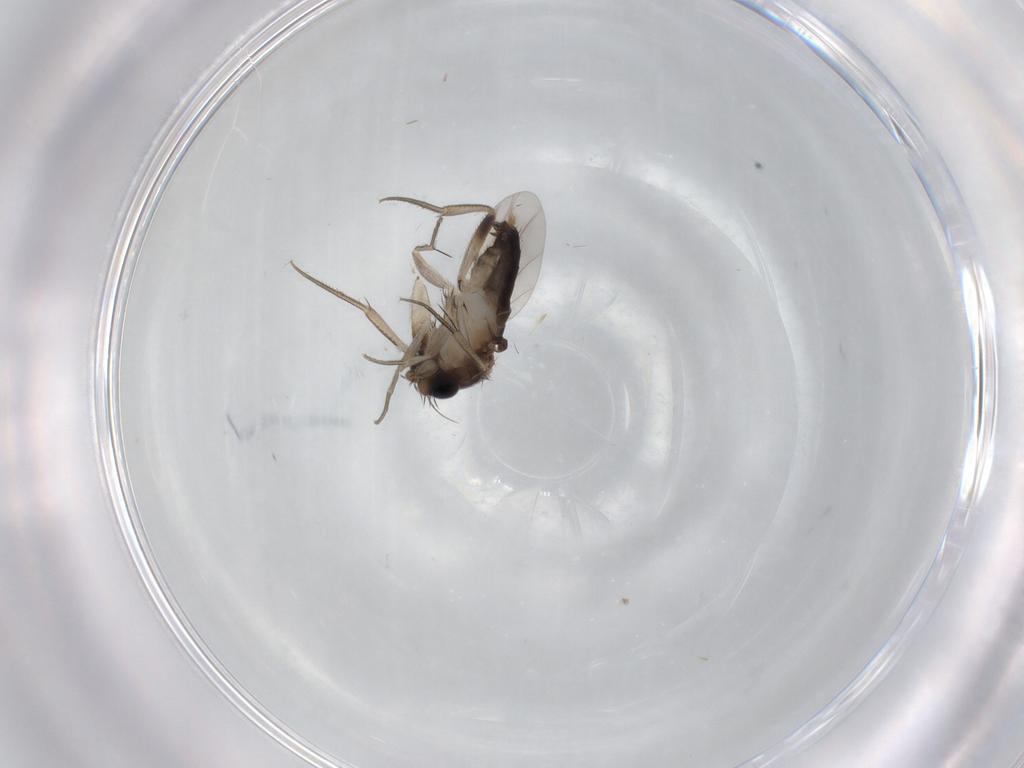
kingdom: Animalia
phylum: Arthropoda
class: Insecta
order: Diptera
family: Phoridae
